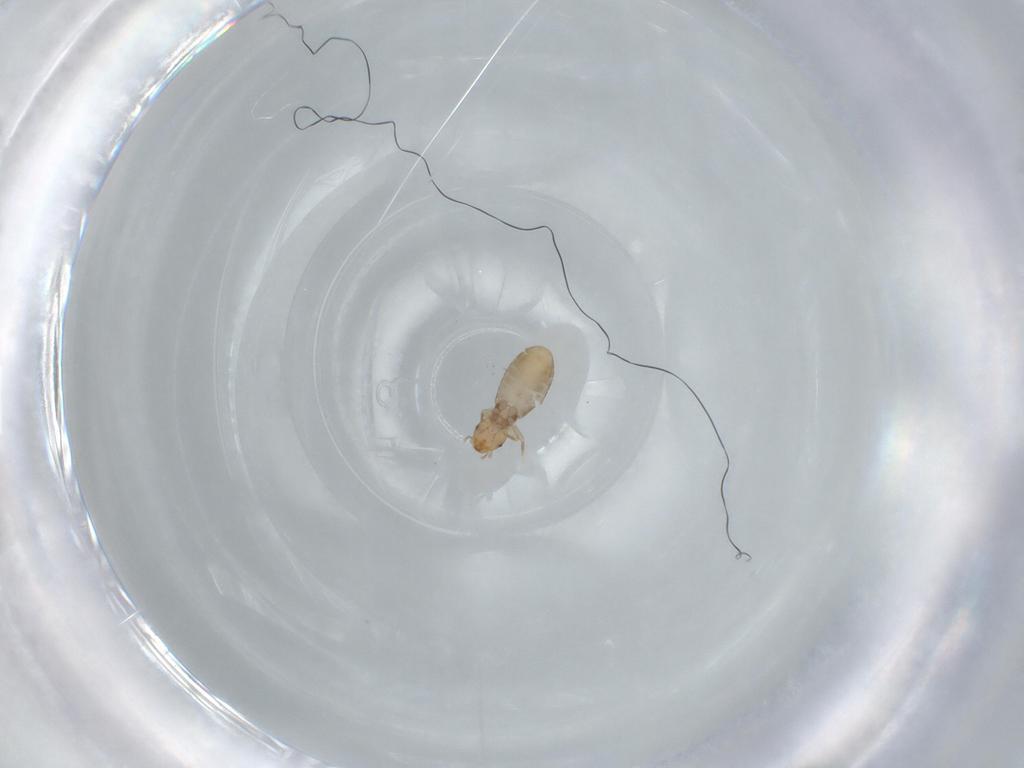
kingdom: Animalia
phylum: Arthropoda
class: Insecta
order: Psocodea
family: Liposcelididae
